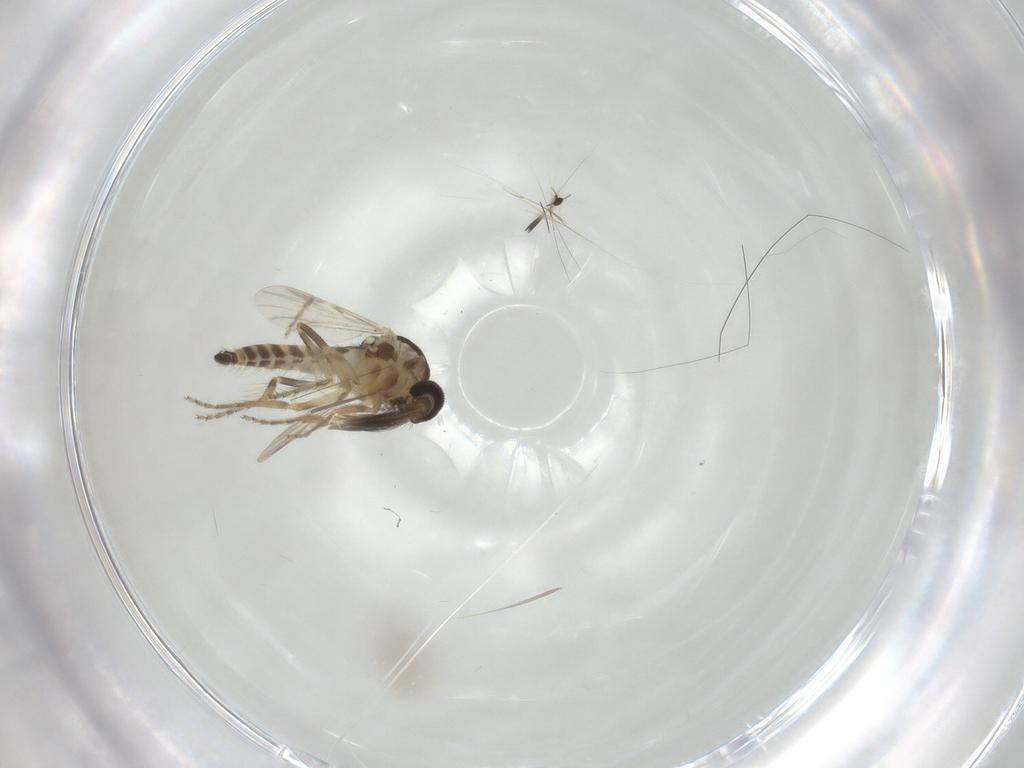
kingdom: Animalia
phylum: Arthropoda
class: Insecta
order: Diptera
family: Ceratopogonidae
